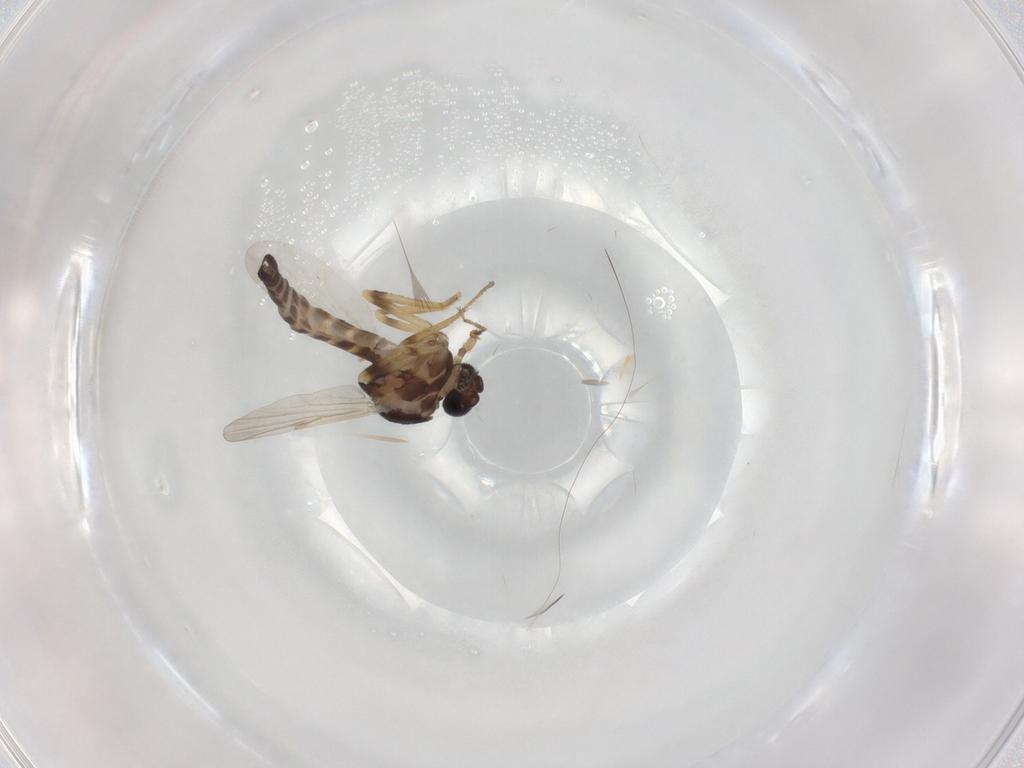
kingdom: Animalia
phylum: Arthropoda
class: Insecta
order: Diptera
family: Ceratopogonidae
